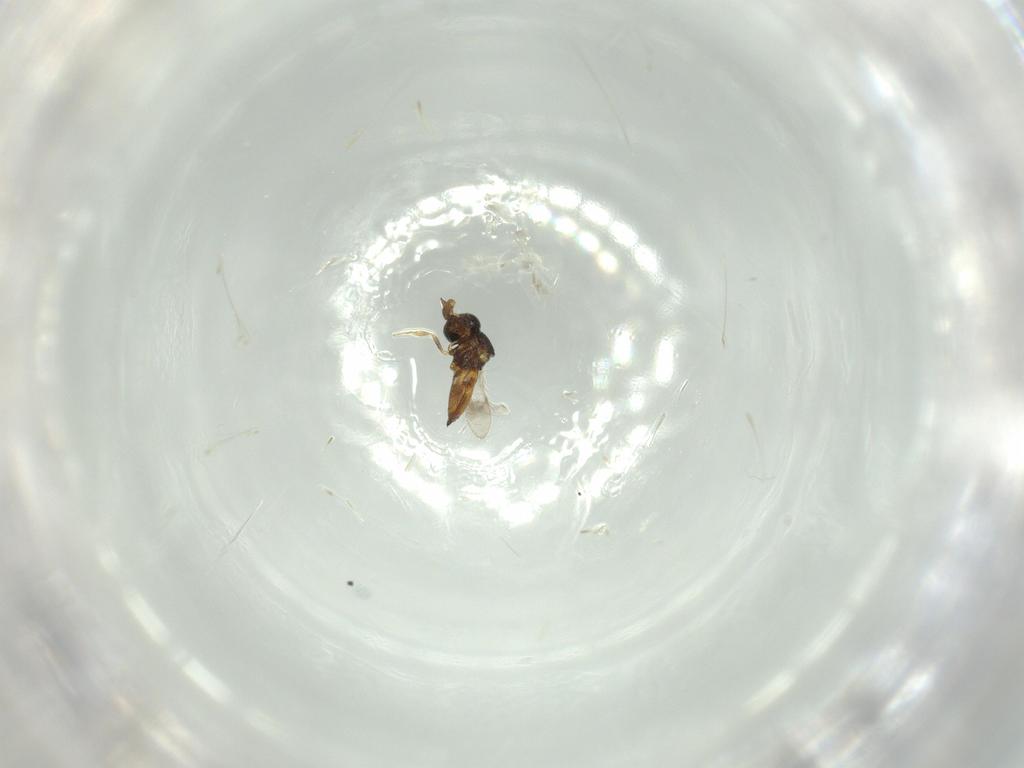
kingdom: Animalia
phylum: Arthropoda
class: Insecta
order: Hymenoptera
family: Scelionidae
